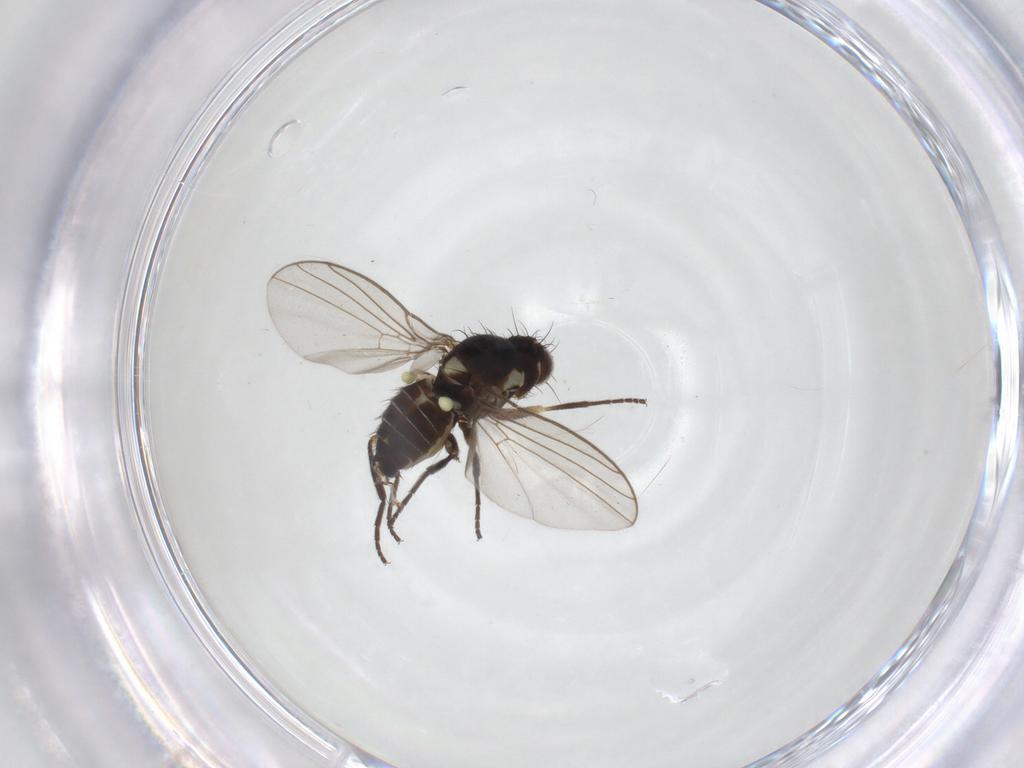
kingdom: Animalia
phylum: Arthropoda
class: Insecta
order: Diptera
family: Agromyzidae
